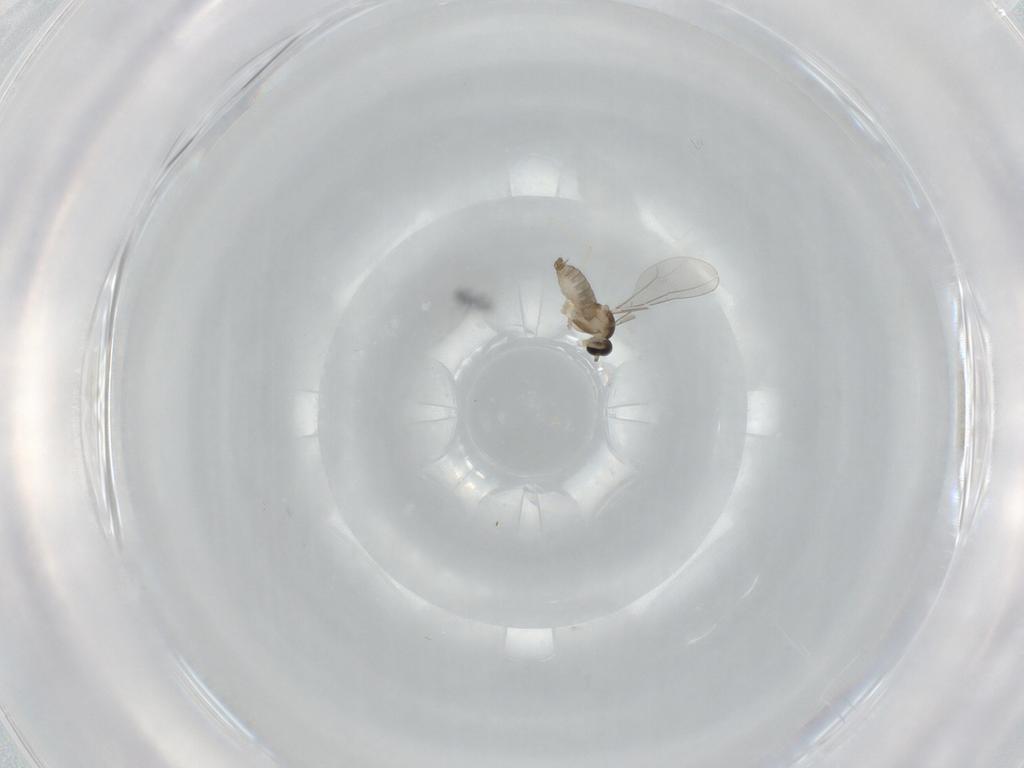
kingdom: Animalia
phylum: Arthropoda
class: Insecta
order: Diptera
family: Cecidomyiidae
